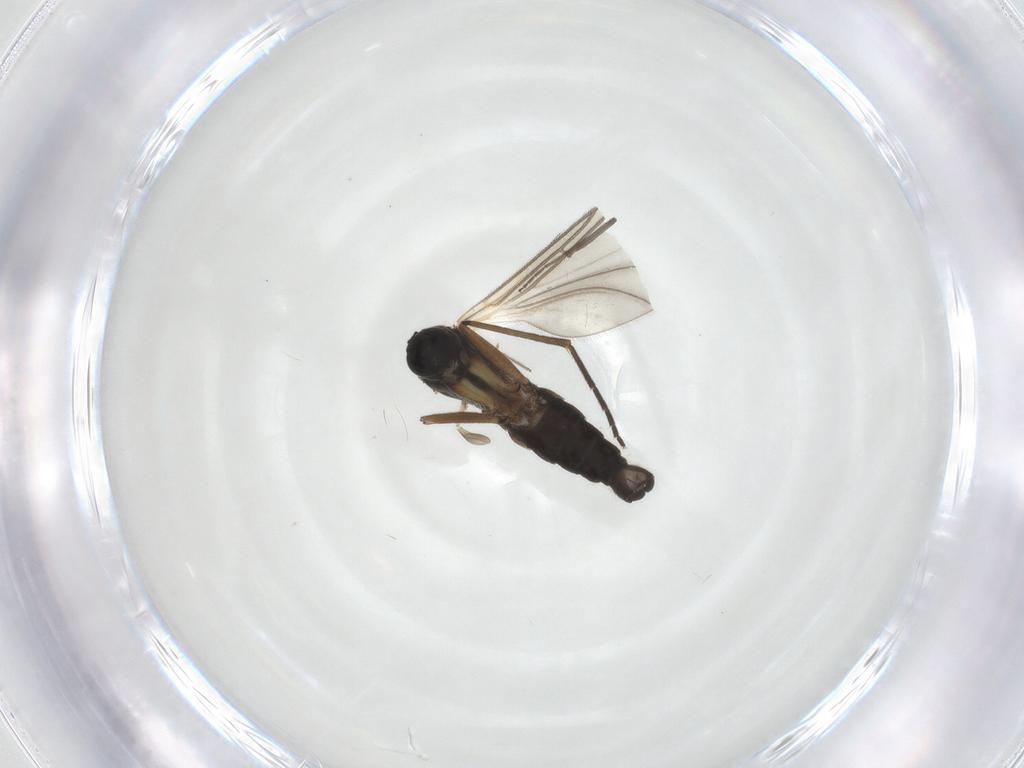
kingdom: Animalia
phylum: Arthropoda
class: Insecta
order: Diptera
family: Sciaridae
